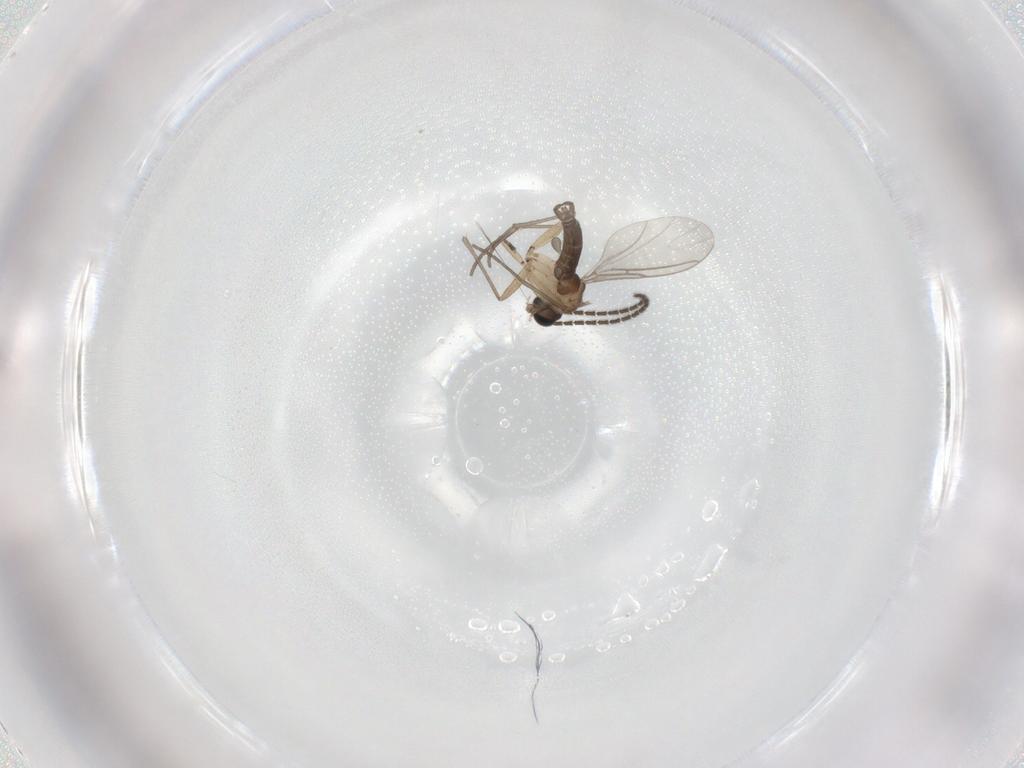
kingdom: Animalia
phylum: Arthropoda
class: Insecta
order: Diptera
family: Sciaridae
